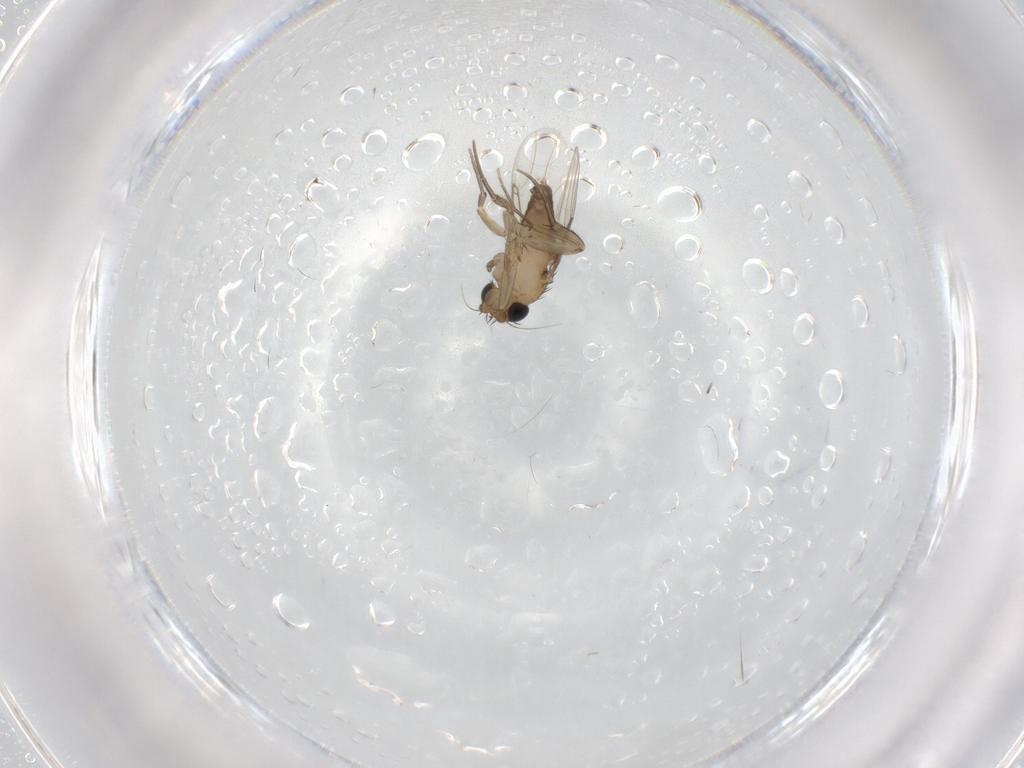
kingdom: Animalia
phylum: Arthropoda
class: Insecta
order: Diptera
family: Phoridae
